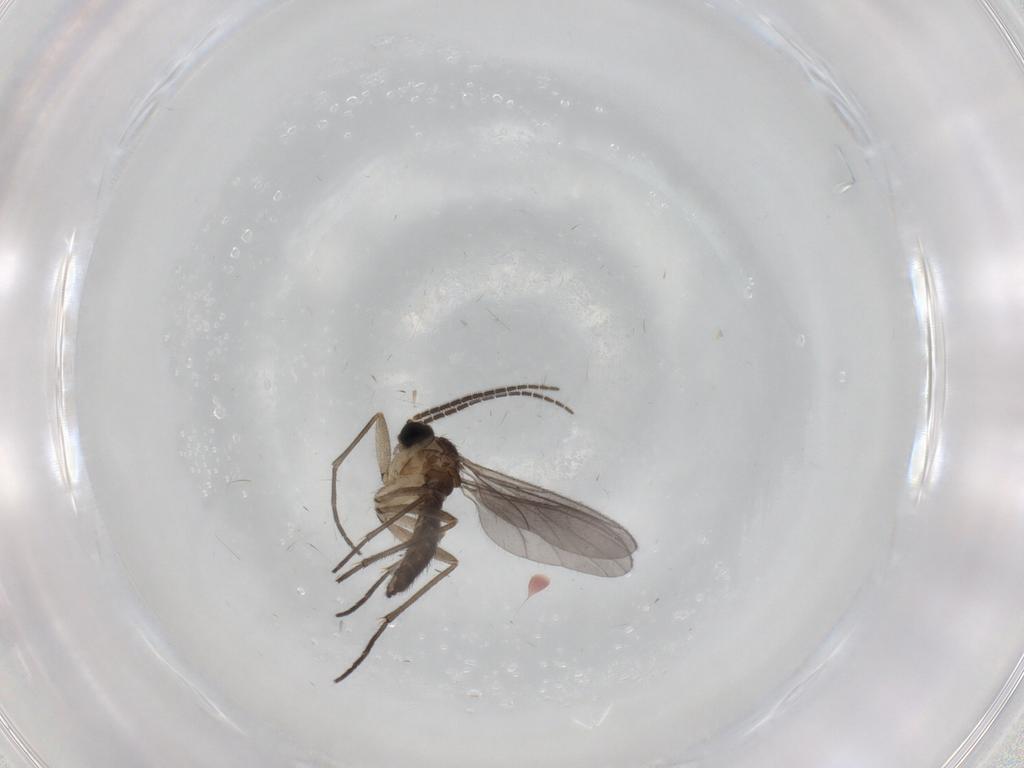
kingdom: Animalia
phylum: Arthropoda
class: Insecta
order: Diptera
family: Sciaridae
